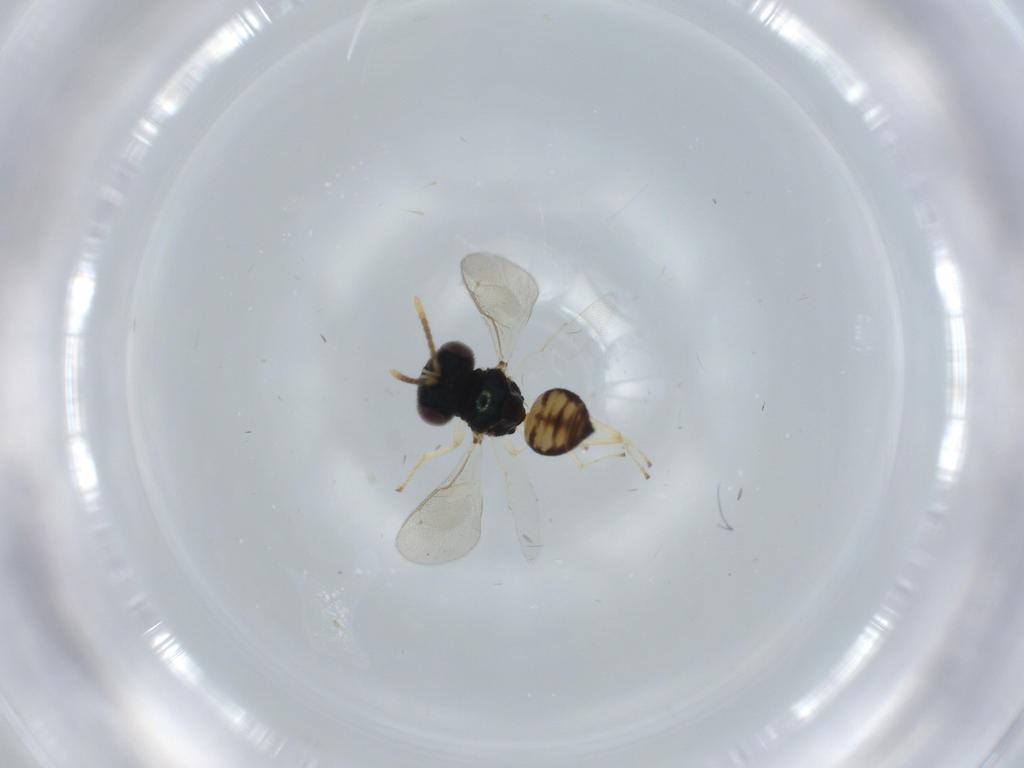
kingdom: Animalia
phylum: Arthropoda
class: Insecta
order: Hymenoptera
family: Pteromalidae
